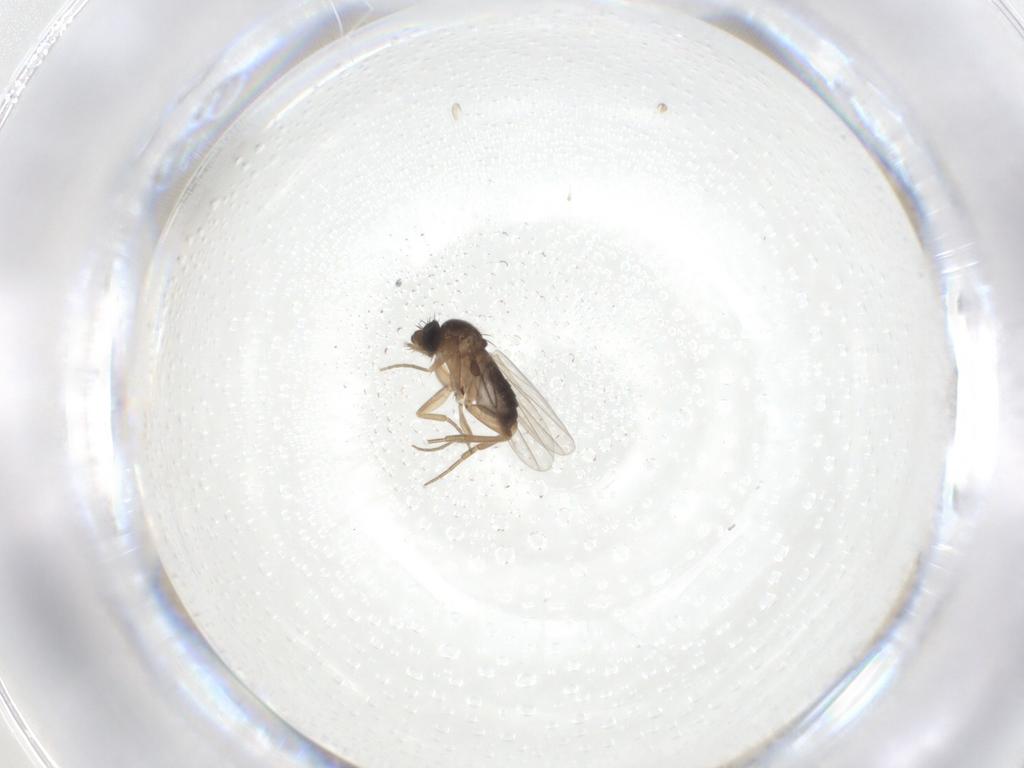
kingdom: Animalia
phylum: Arthropoda
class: Insecta
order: Diptera
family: Phoridae
